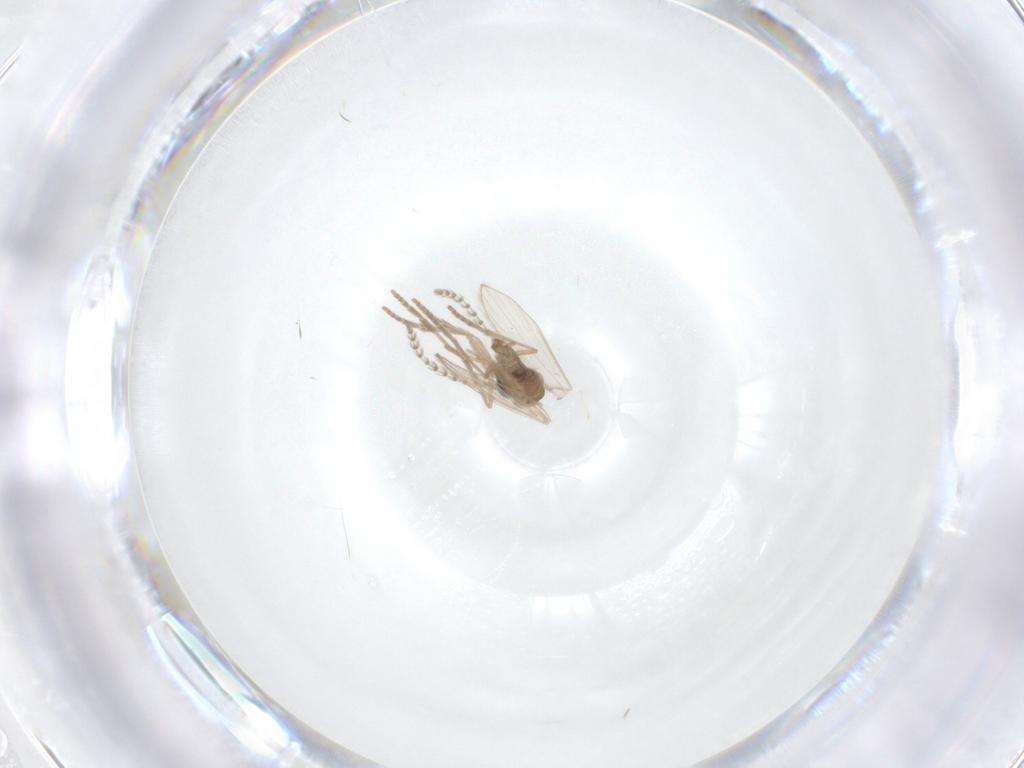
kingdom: Animalia
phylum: Arthropoda
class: Insecta
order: Diptera
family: Psychodidae
